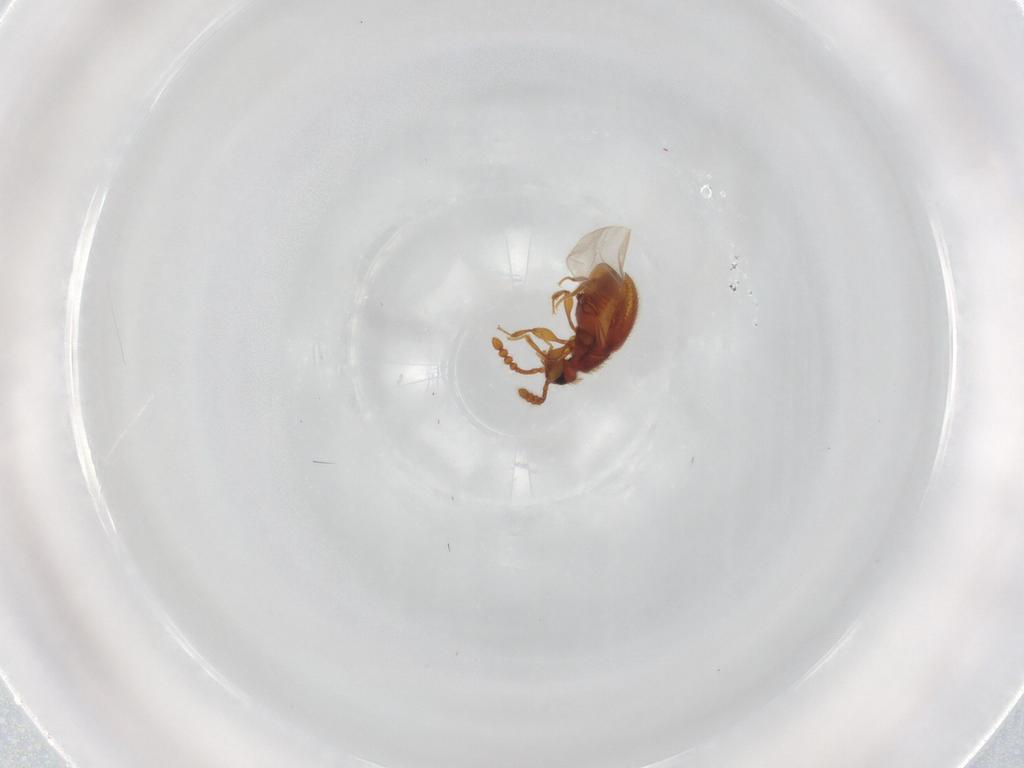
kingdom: Animalia
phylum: Arthropoda
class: Insecta
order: Coleoptera
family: Staphylinidae
